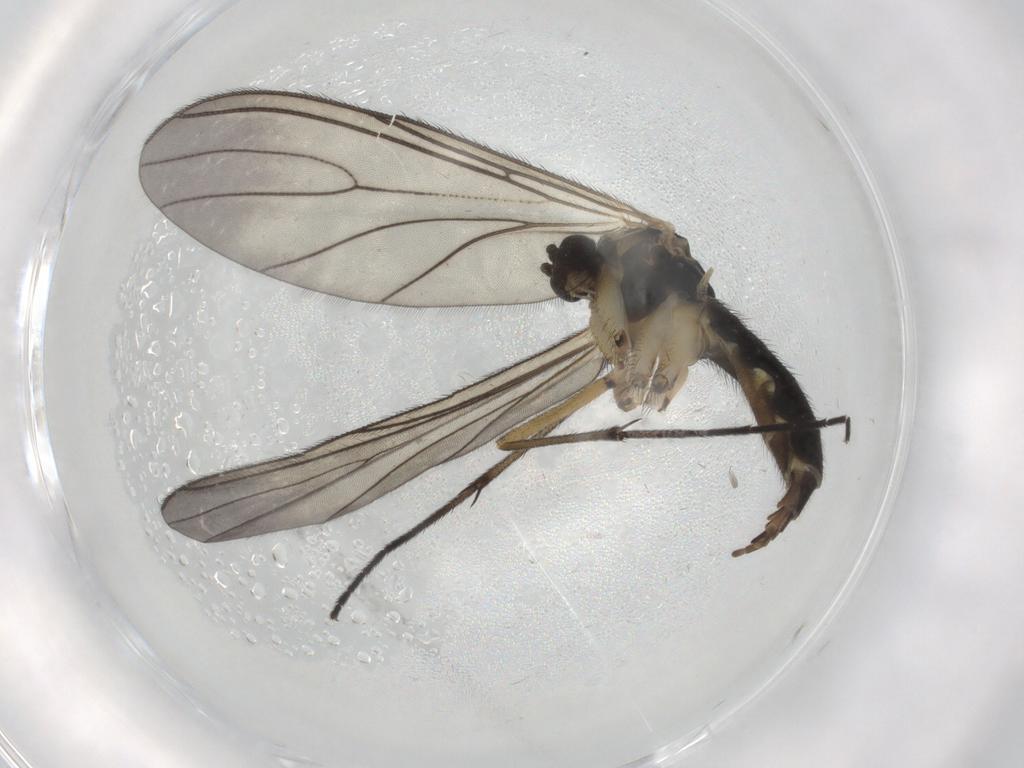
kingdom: Animalia
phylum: Arthropoda
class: Insecta
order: Diptera
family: Sciaridae
